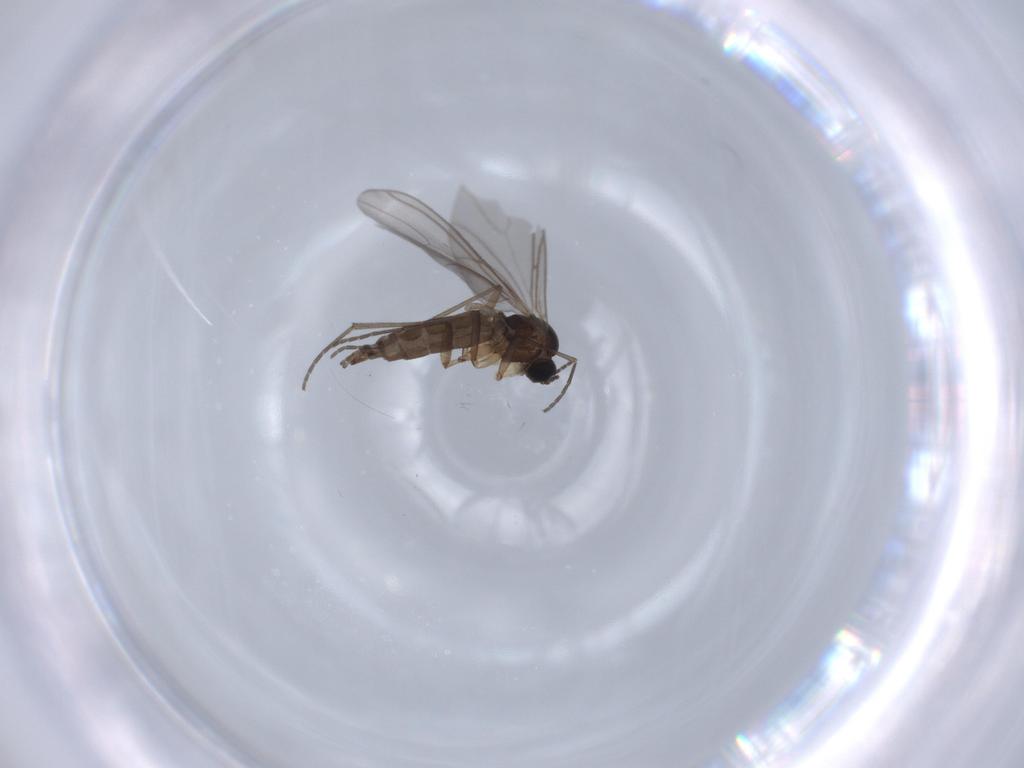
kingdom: Animalia
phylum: Arthropoda
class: Insecta
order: Diptera
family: Sciaridae
